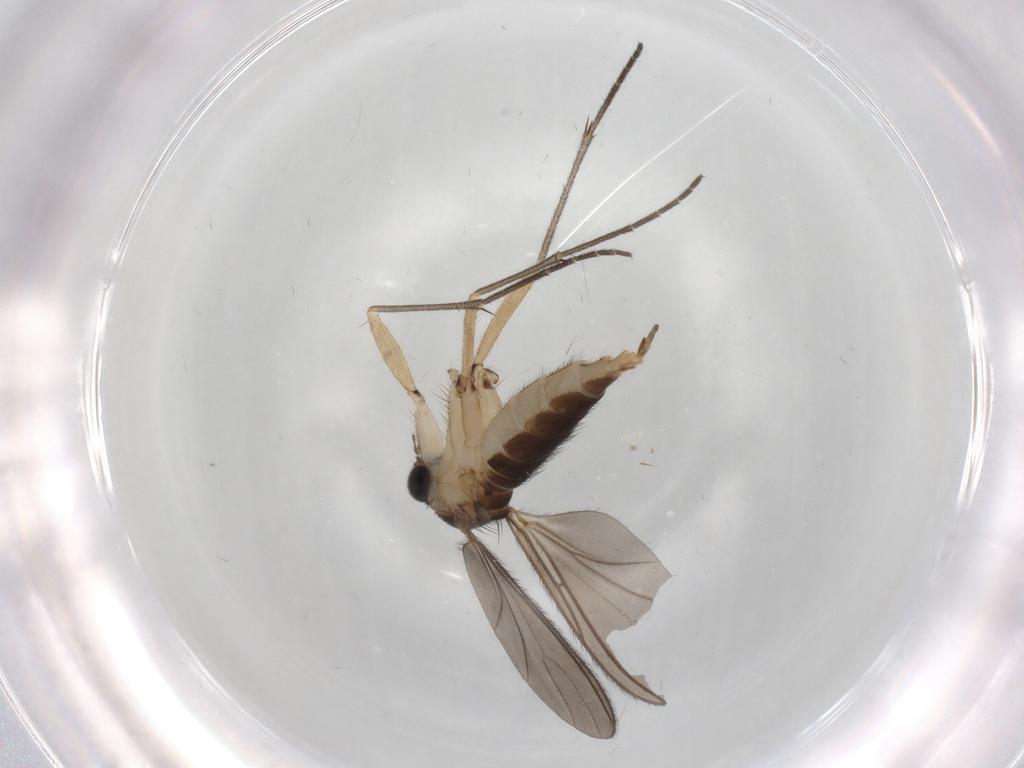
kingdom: Animalia
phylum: Arthropoda
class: Insecta
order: Diptera
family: Sciaridae
